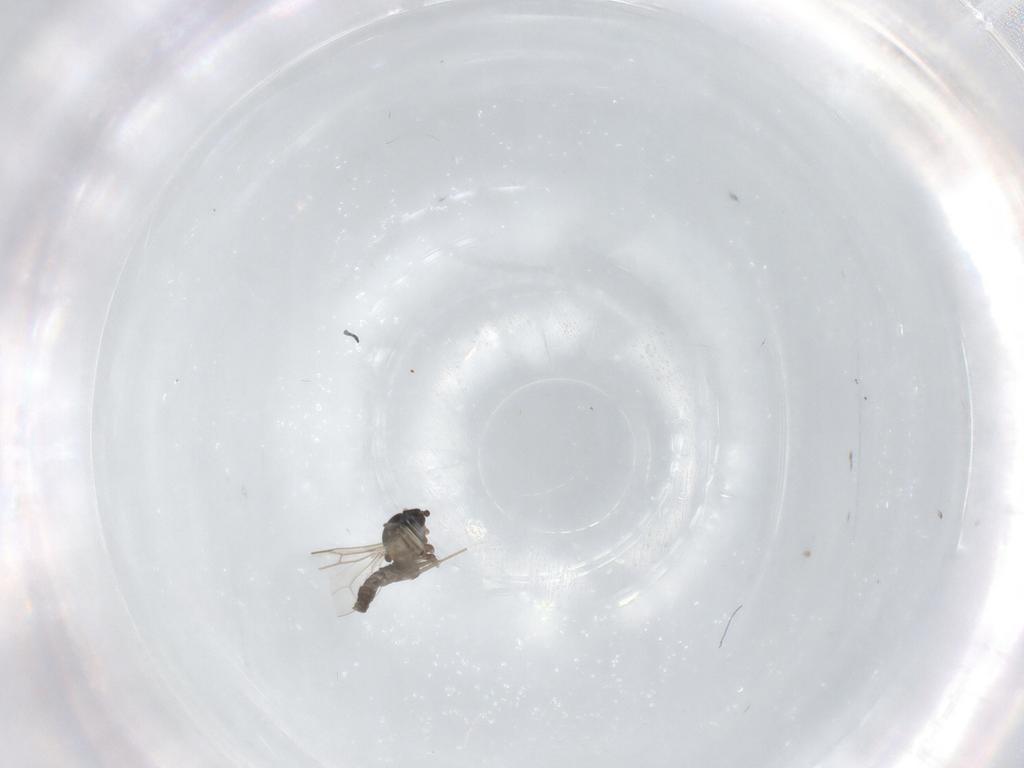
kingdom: Animalia
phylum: Arthropoda
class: Insecta
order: Diptera
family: Cecidomyiidae
